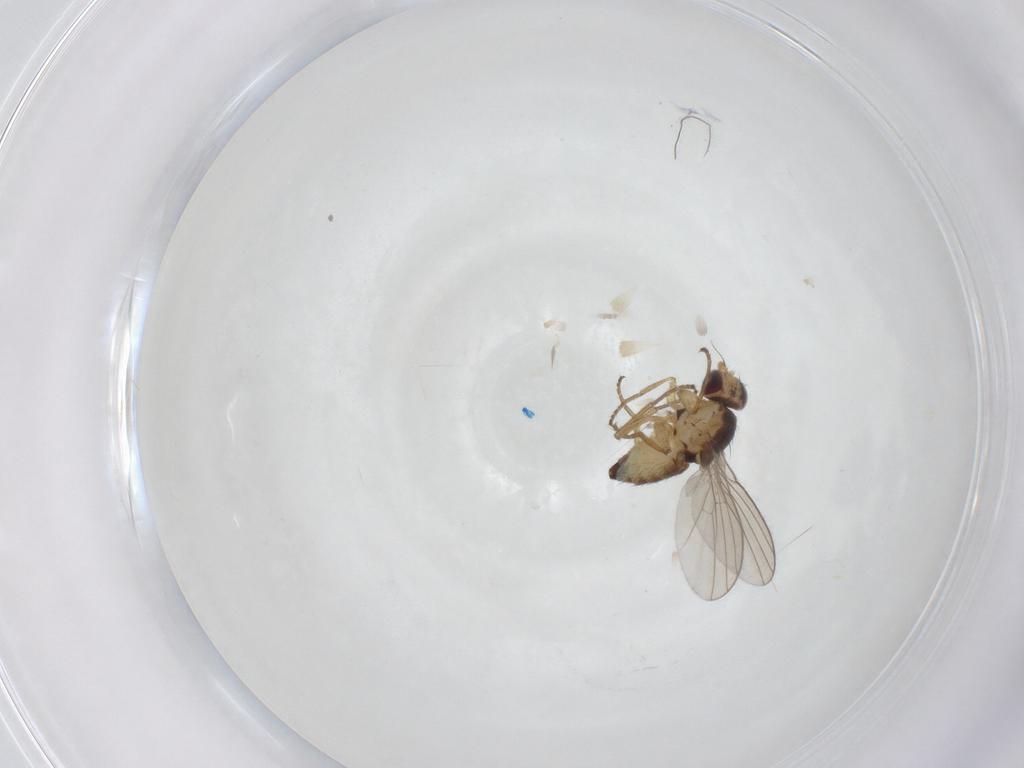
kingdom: Animalia
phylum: Arthropoda
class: Insecta
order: Diptera
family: Agromyzidae
